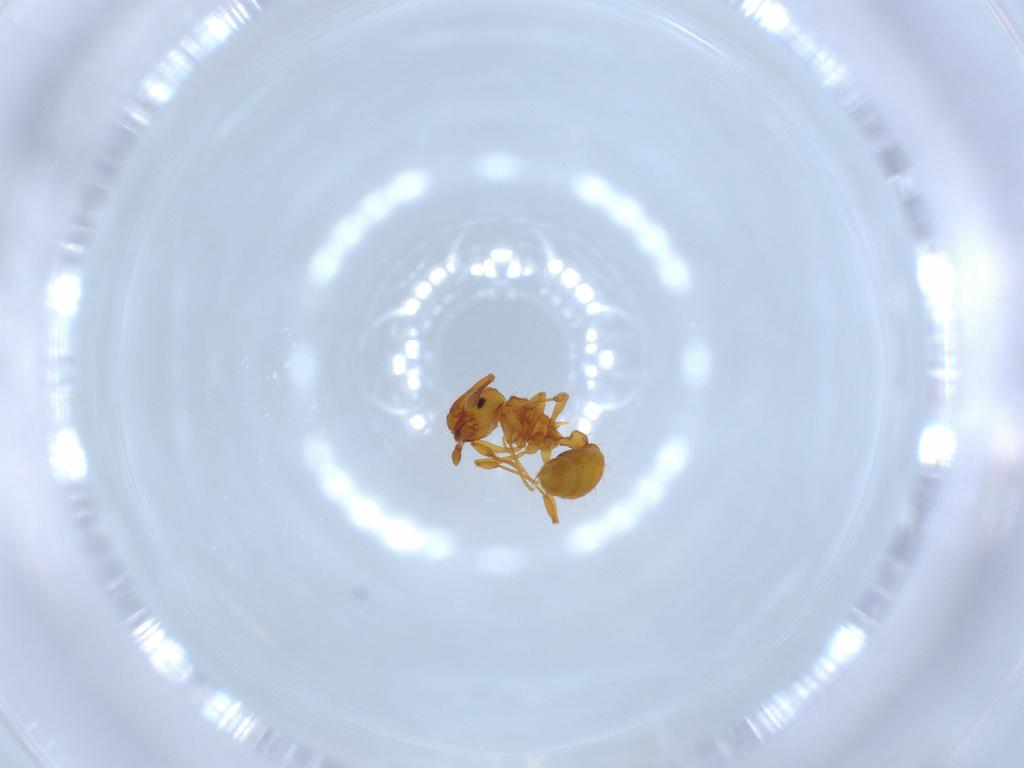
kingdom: Animalia
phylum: Arthropoda
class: Insecta
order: Hymenoptera
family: Formicidae
